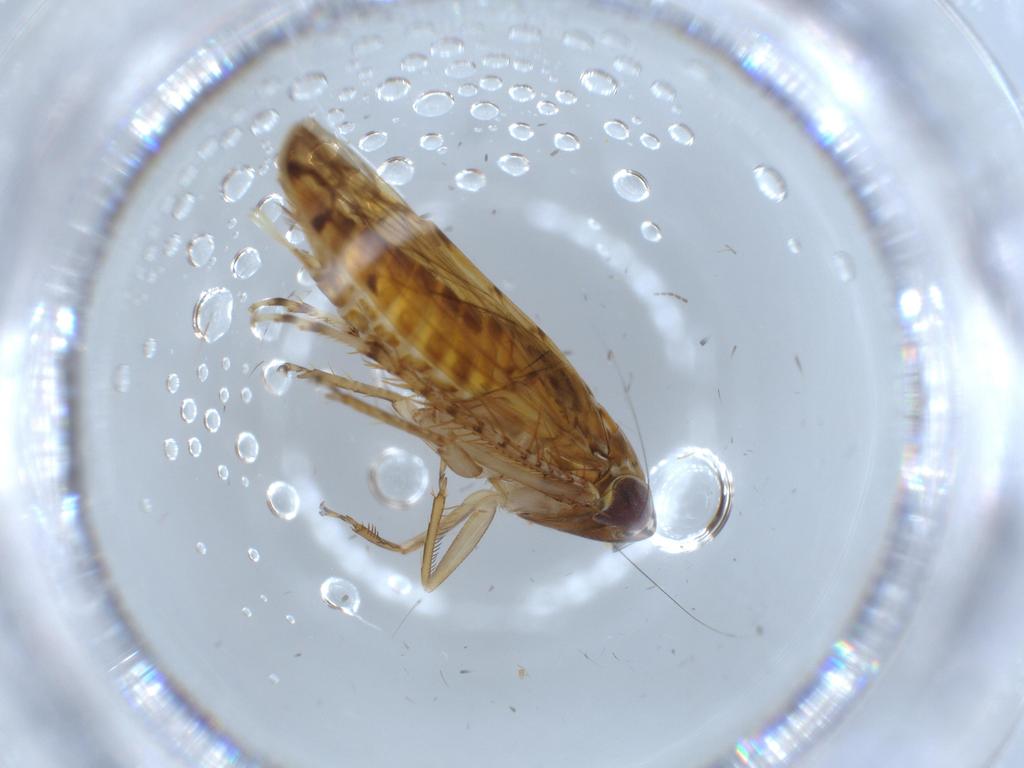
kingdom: Animalia
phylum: Arthropoda
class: Insecta
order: Hemiptera
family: Cicadellidae
